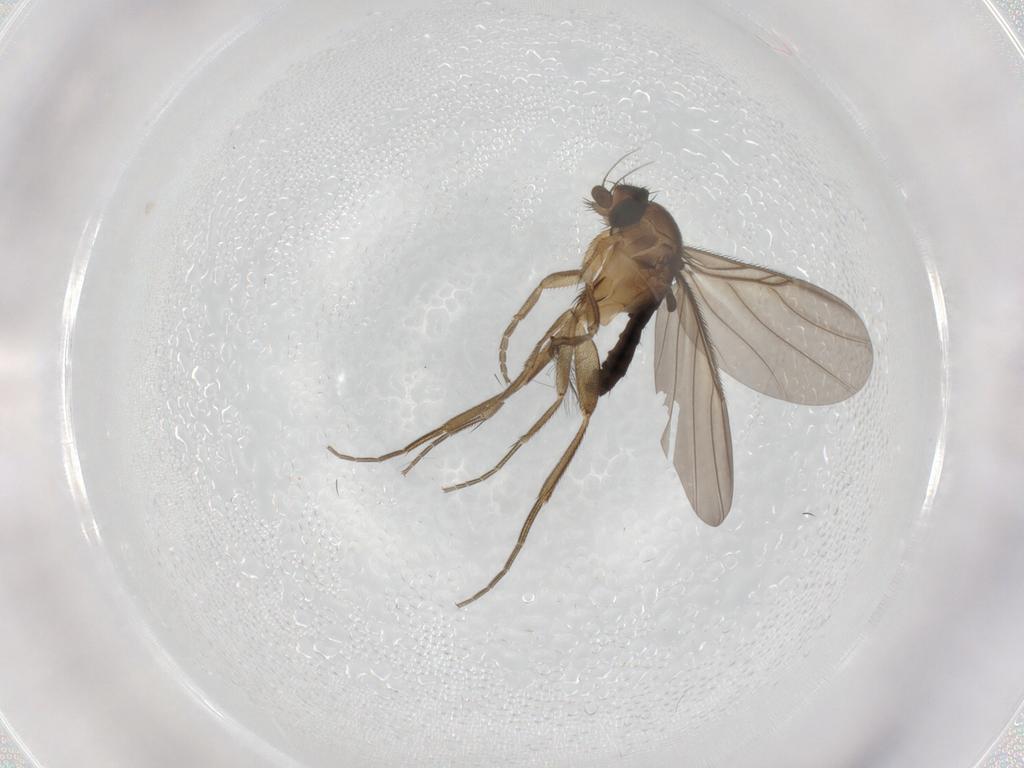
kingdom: Animalia
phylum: Arthropoda
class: Insecta
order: Diptera
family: Phoridae
